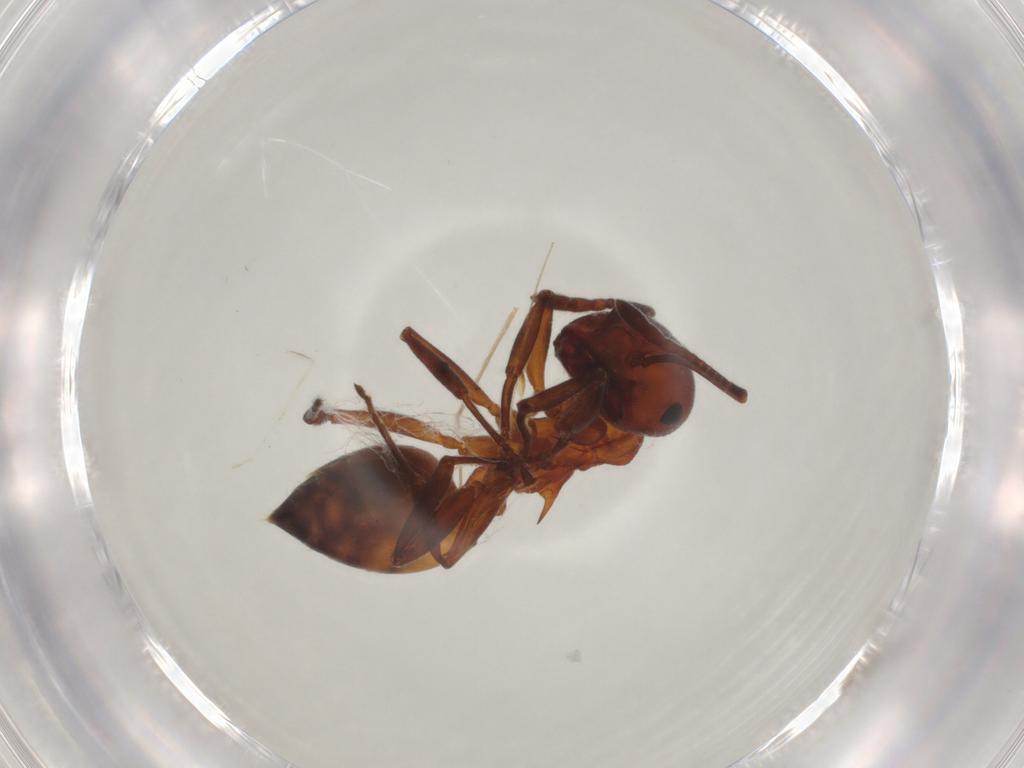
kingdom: Animalia
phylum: Arthropoda
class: Insecta
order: Hymenoptera
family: Formicidae
